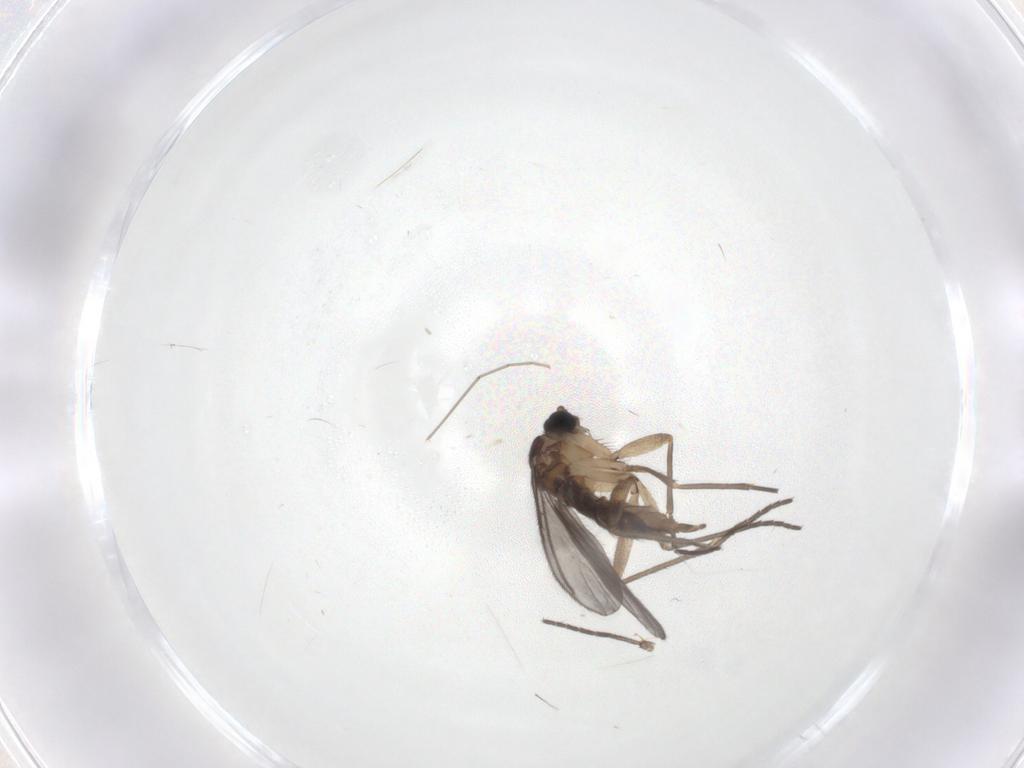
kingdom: Animalia
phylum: Arthropoda
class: Insecta
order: Diptera
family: Sciaridae
